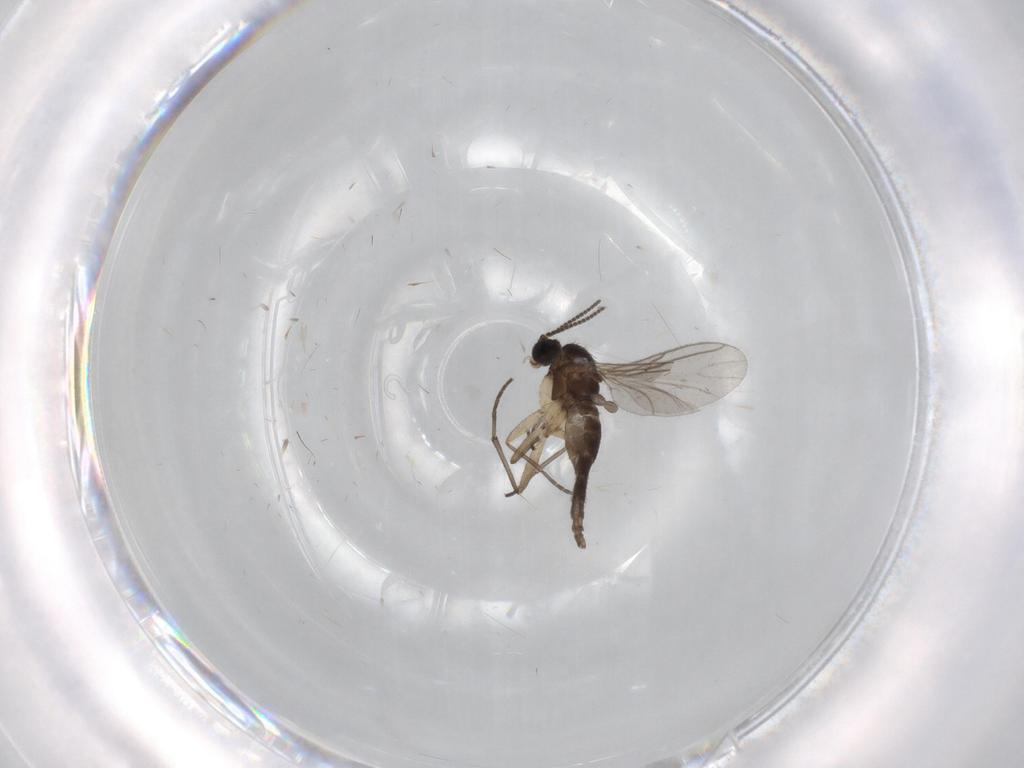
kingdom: Animalia
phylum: Arthropoda
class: Insecta
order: Diptera
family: Sciaridae
